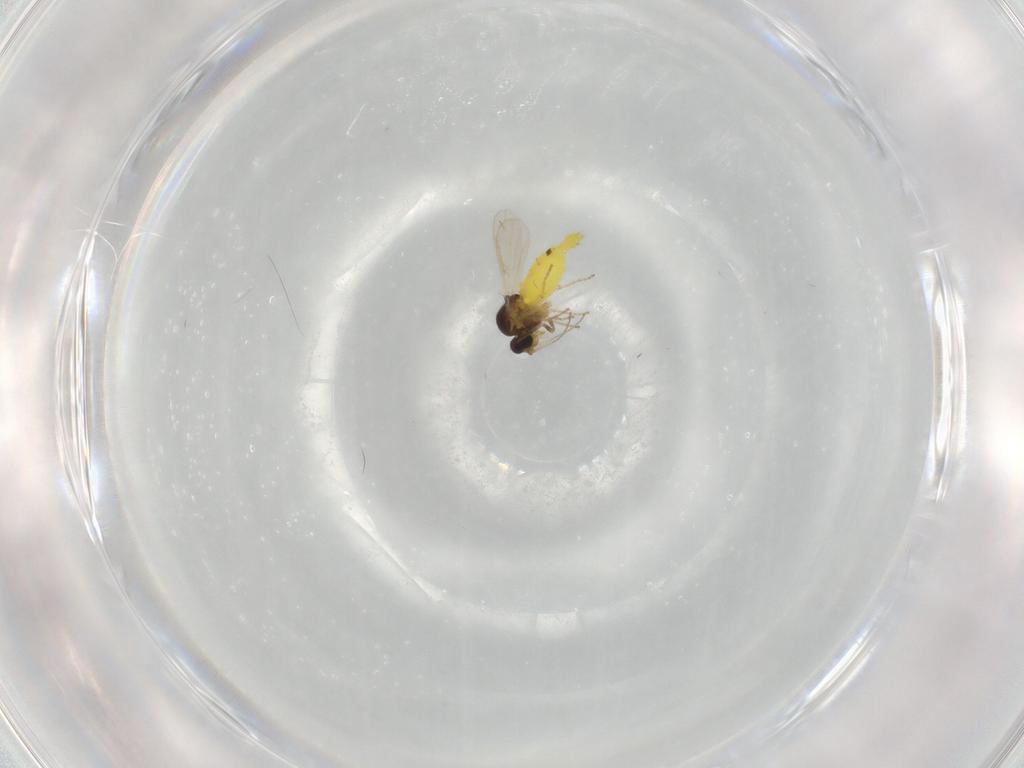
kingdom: Animalia
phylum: Arthropoda
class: Insecta
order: Diptera
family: Ceratopogonidae
